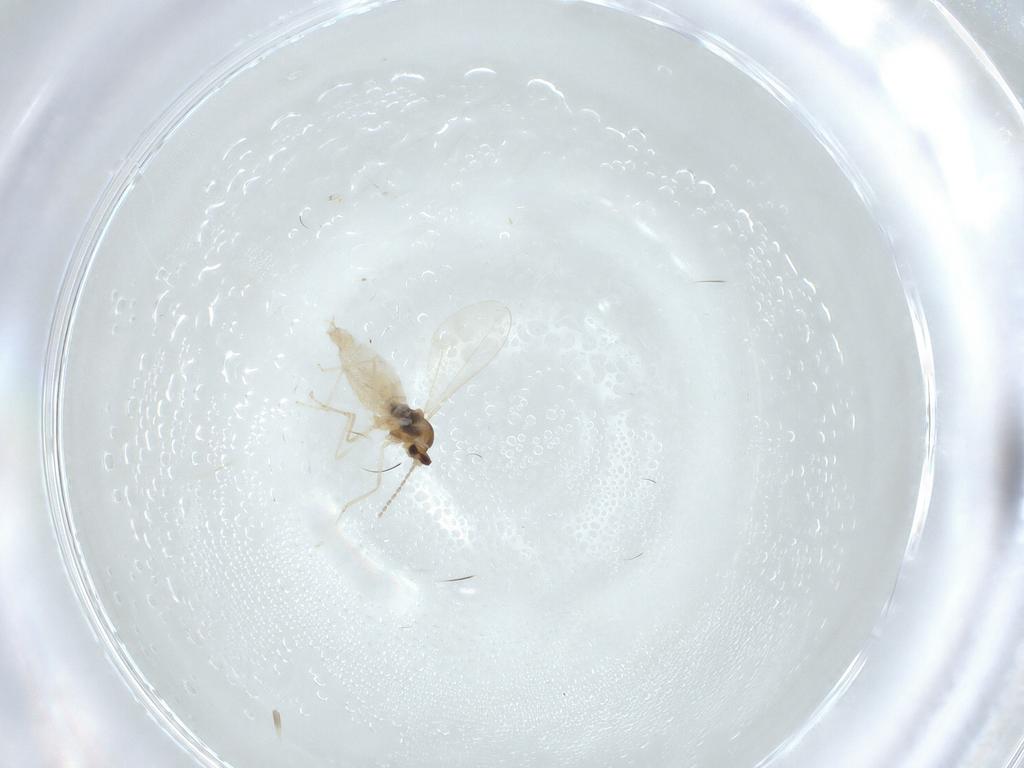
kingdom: Animalia
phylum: Arthropoda
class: Insecta
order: Diptera
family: Cecidomyiidae
